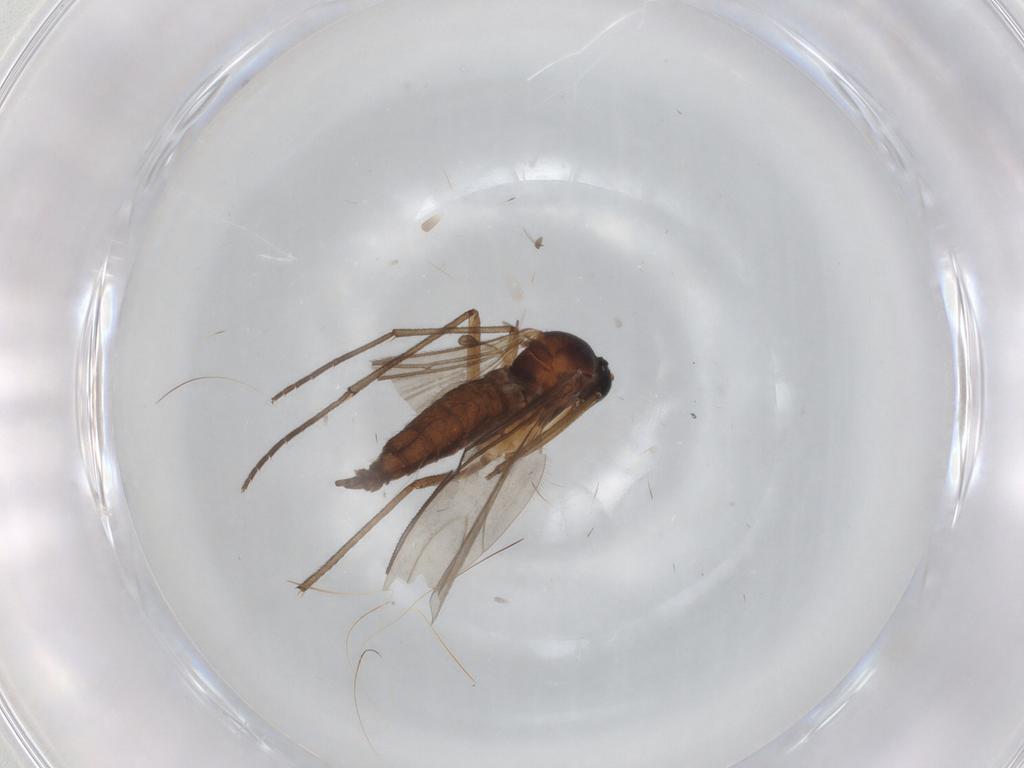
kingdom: Animalia
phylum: Arthropoda
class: Insecta
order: Diptera
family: Sciaridae
